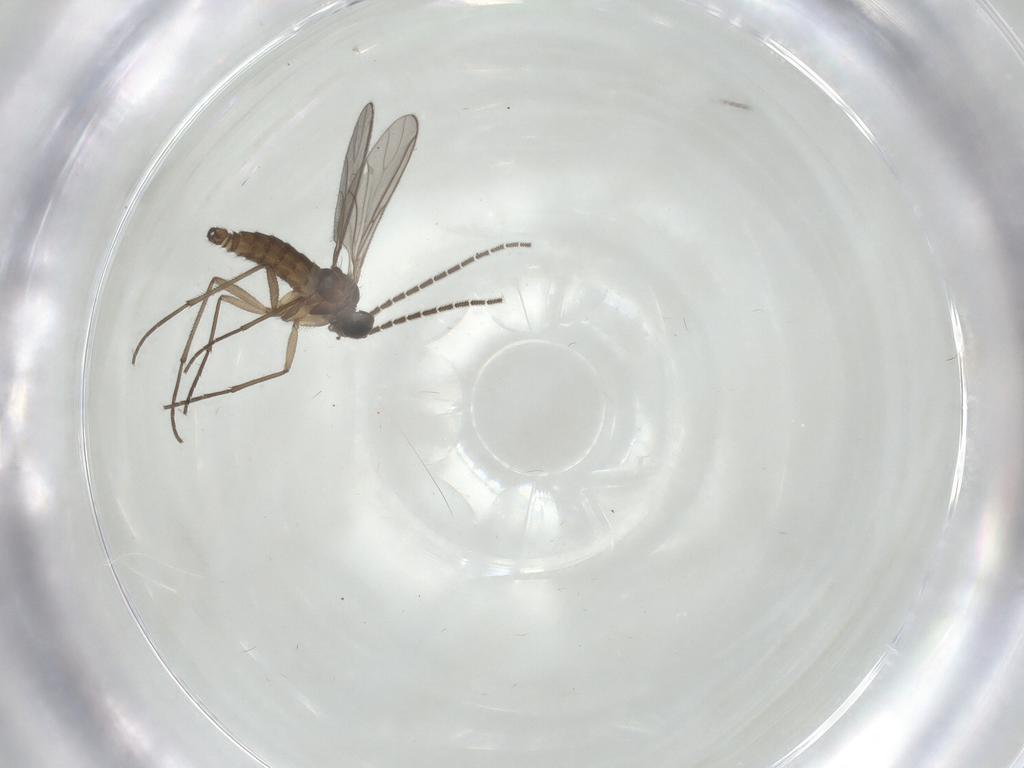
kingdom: Animalia
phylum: Arthropoda
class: Insecta
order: Diptera
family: Sciaridae
